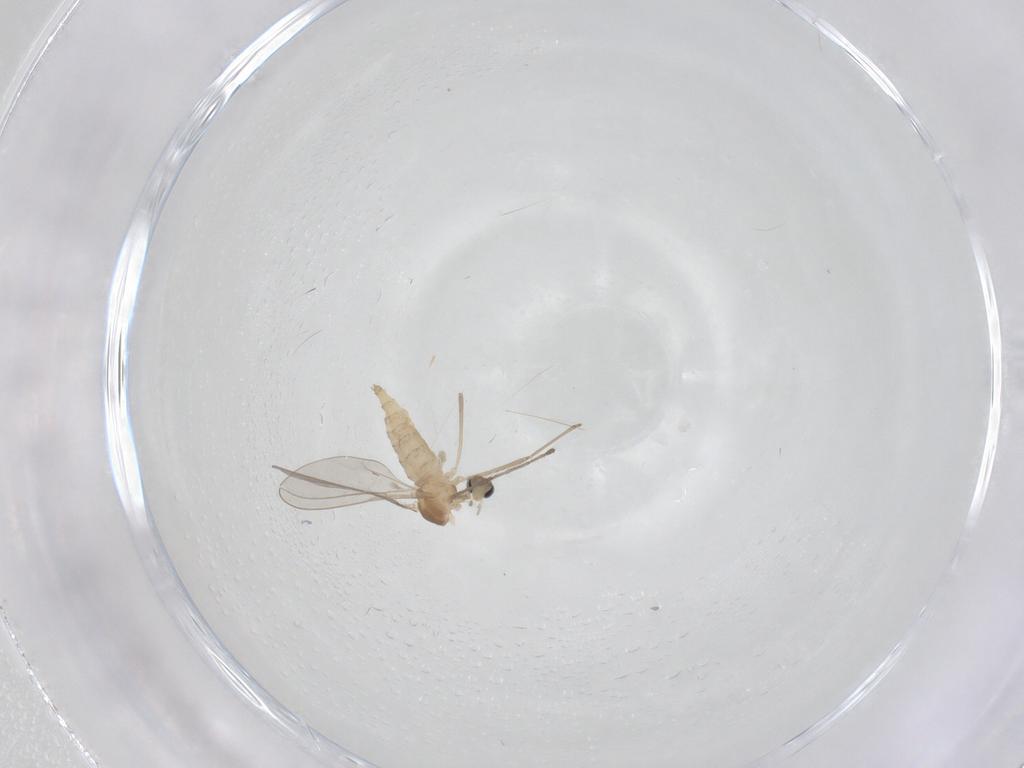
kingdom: Animalia
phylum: Arthropoda
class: Insecta
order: Diptera
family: Cecidomyiidae
